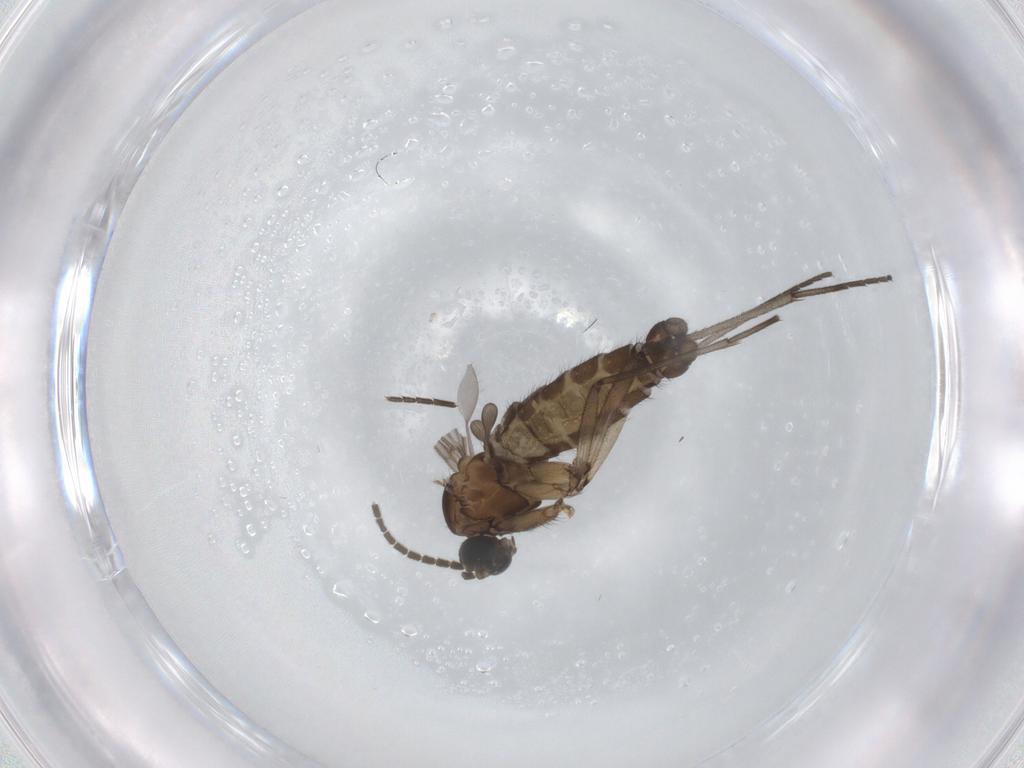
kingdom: Animalia
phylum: Arthropoda
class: Insecta
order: Diptera
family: Sciaridae
